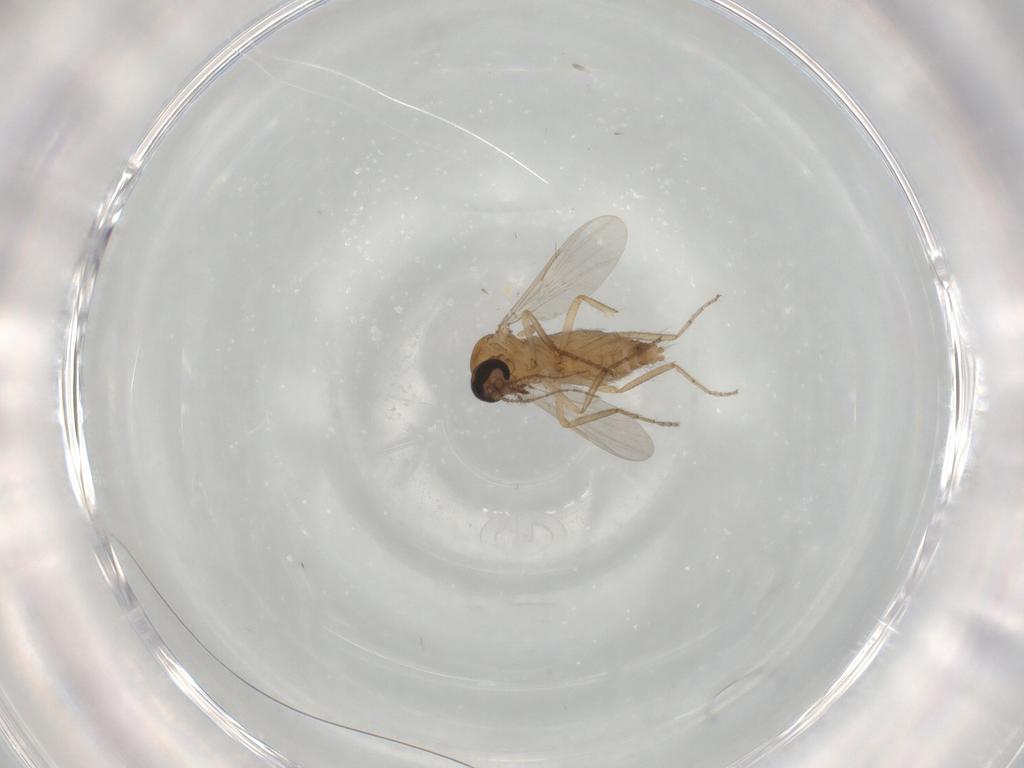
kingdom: Animalia
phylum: Arthropoda
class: Insecta
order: Diptera
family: Ceratopogonidae
